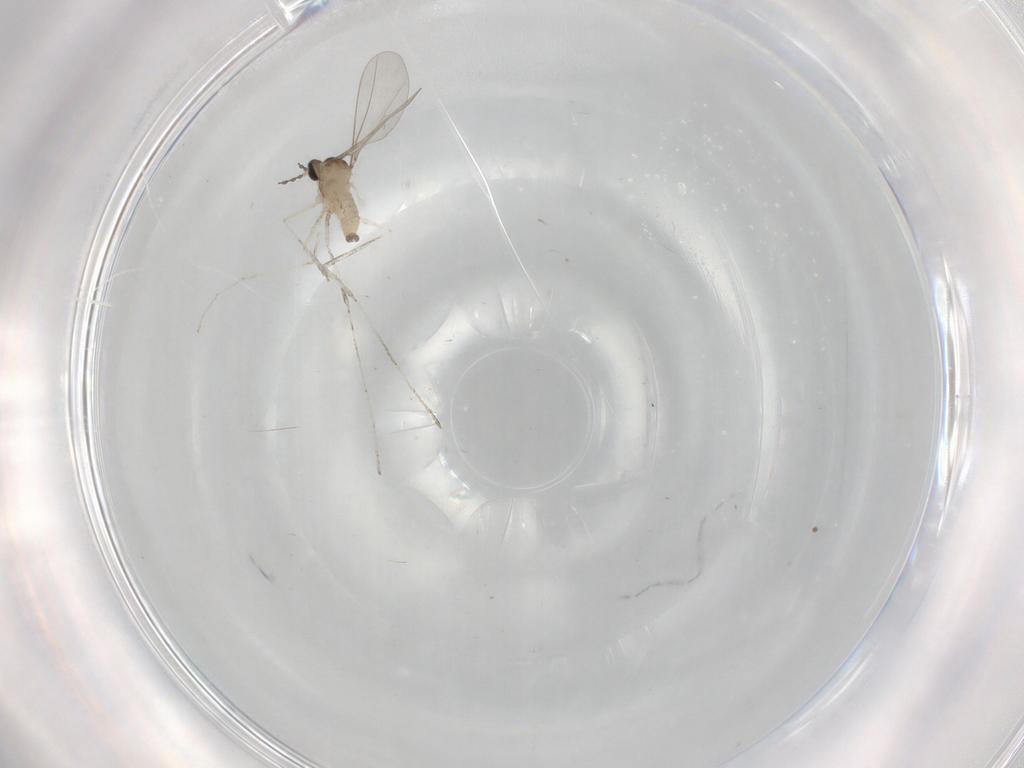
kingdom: Animalia
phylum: Arthropoda
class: Insecta
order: Diptera
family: Cecidomyiidae
